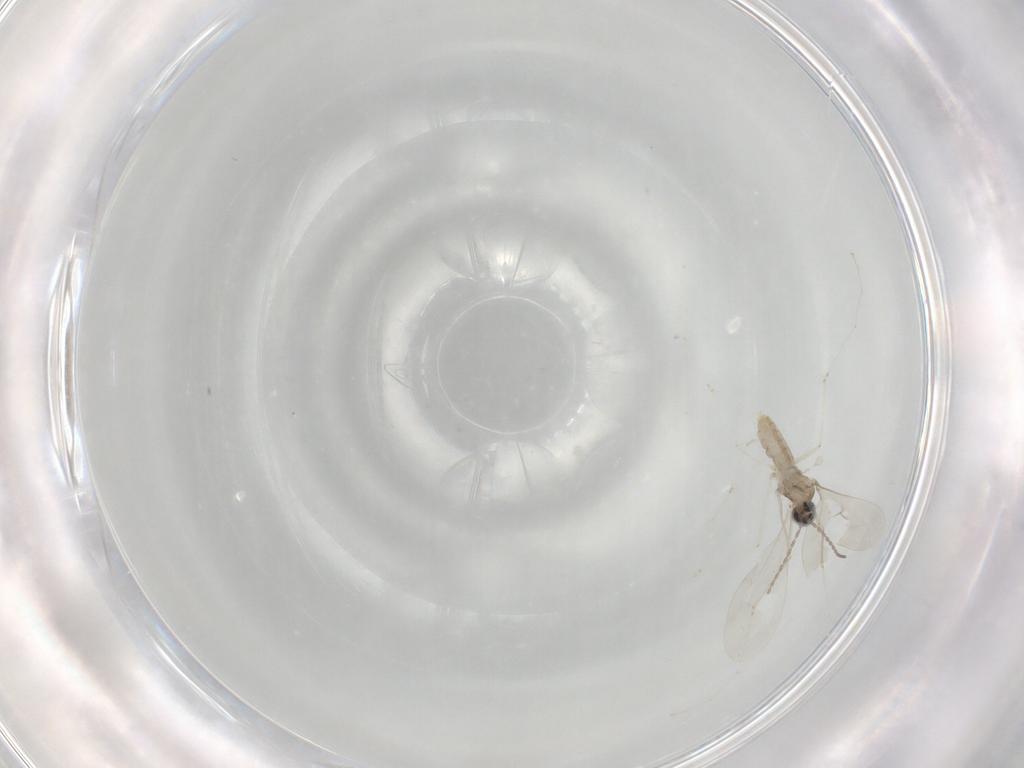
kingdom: Animalia
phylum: Arthropoda
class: Insecta
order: Diptera
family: Cecidomyiidae
